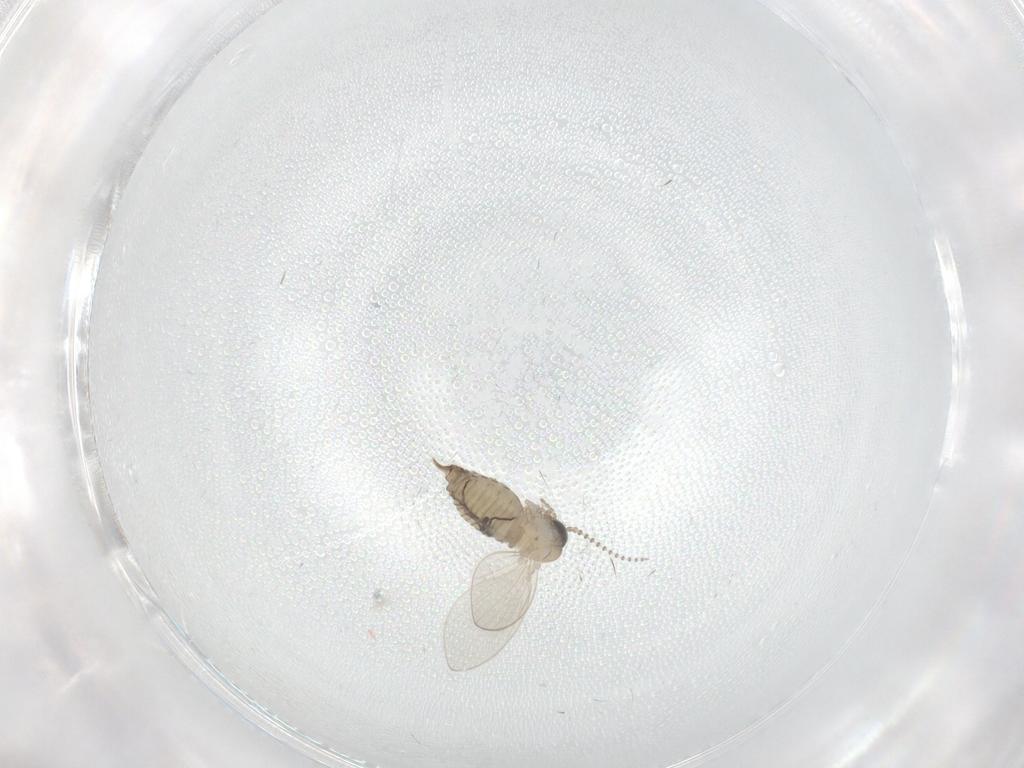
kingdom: Animalia
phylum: Arthropoda
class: Insecta
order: Diptera
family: Psychodidae
